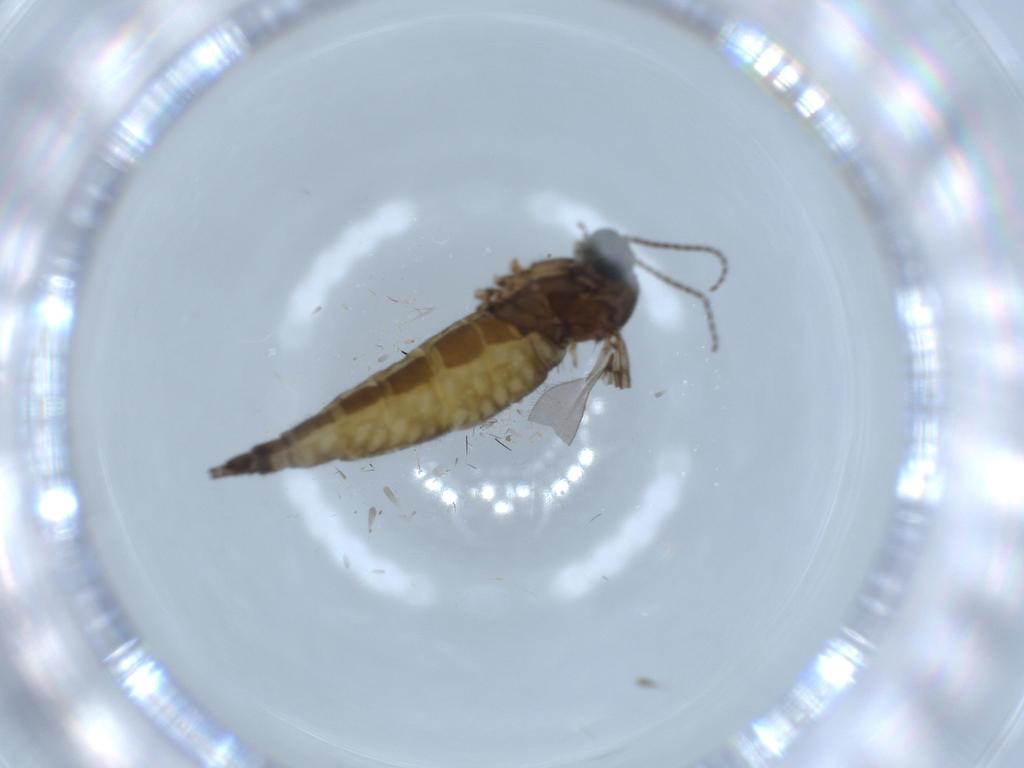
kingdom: Animalia
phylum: Arthropoda
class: Insecta
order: Diptera
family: Sciaridae
